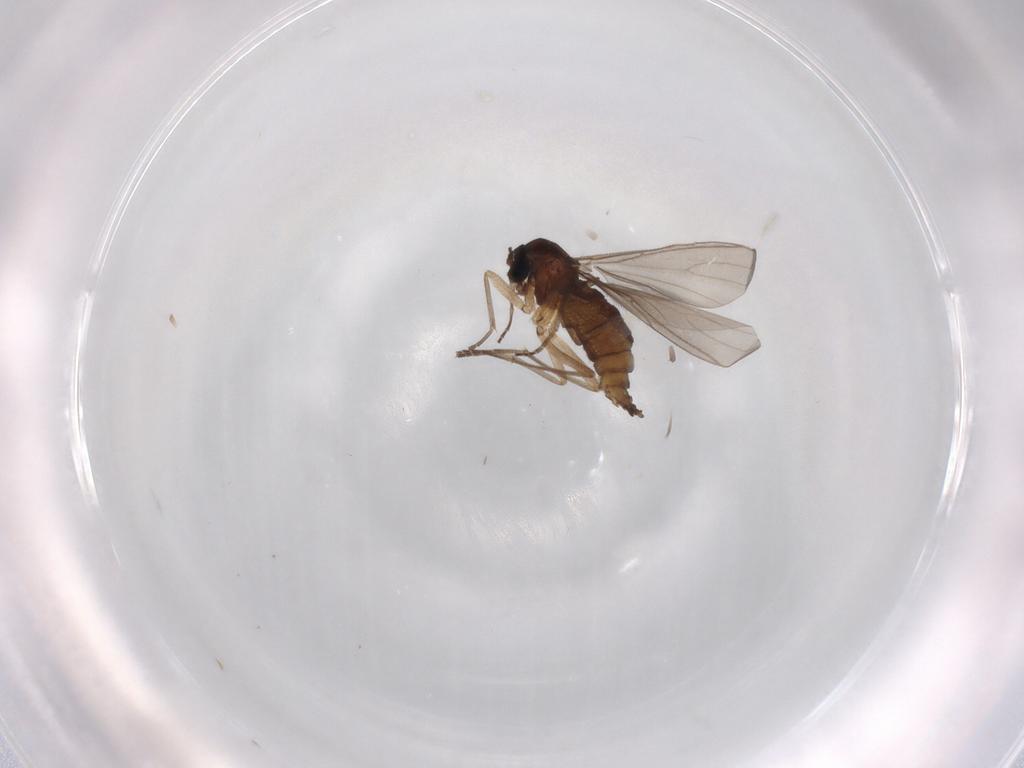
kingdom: Animalia
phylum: Arthropoda
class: Insecta
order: Diptera
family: Sciaridae
